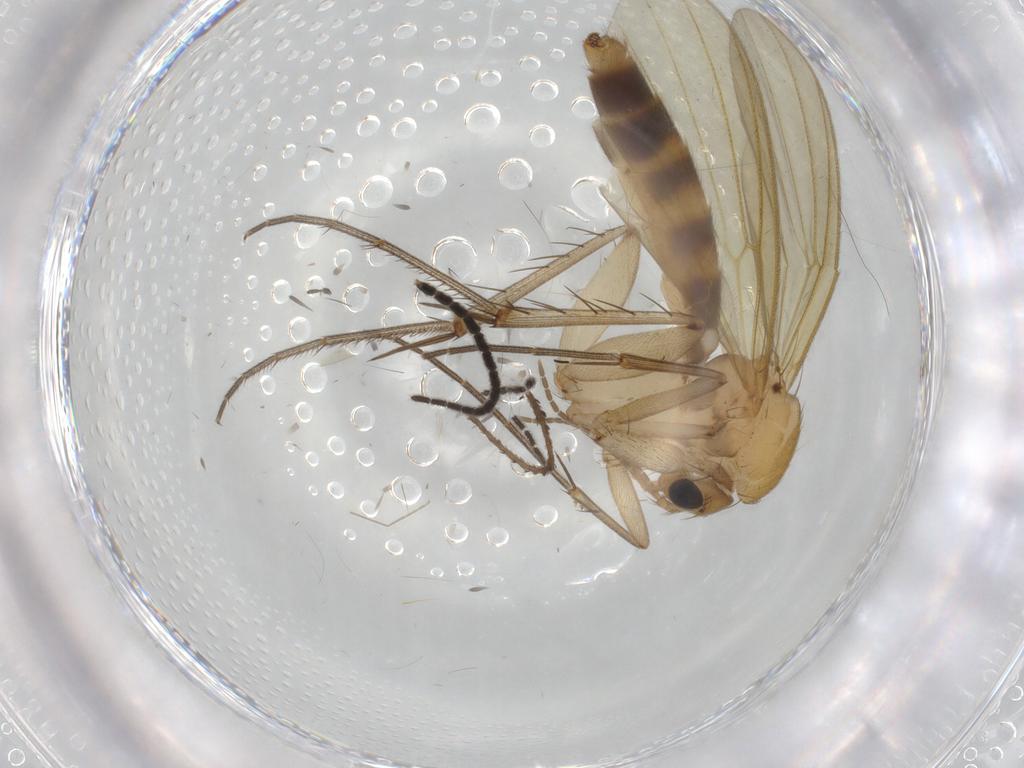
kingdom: Animalia
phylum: Arthropoda
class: Insecta
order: Diptera
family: Mycetophilidae
